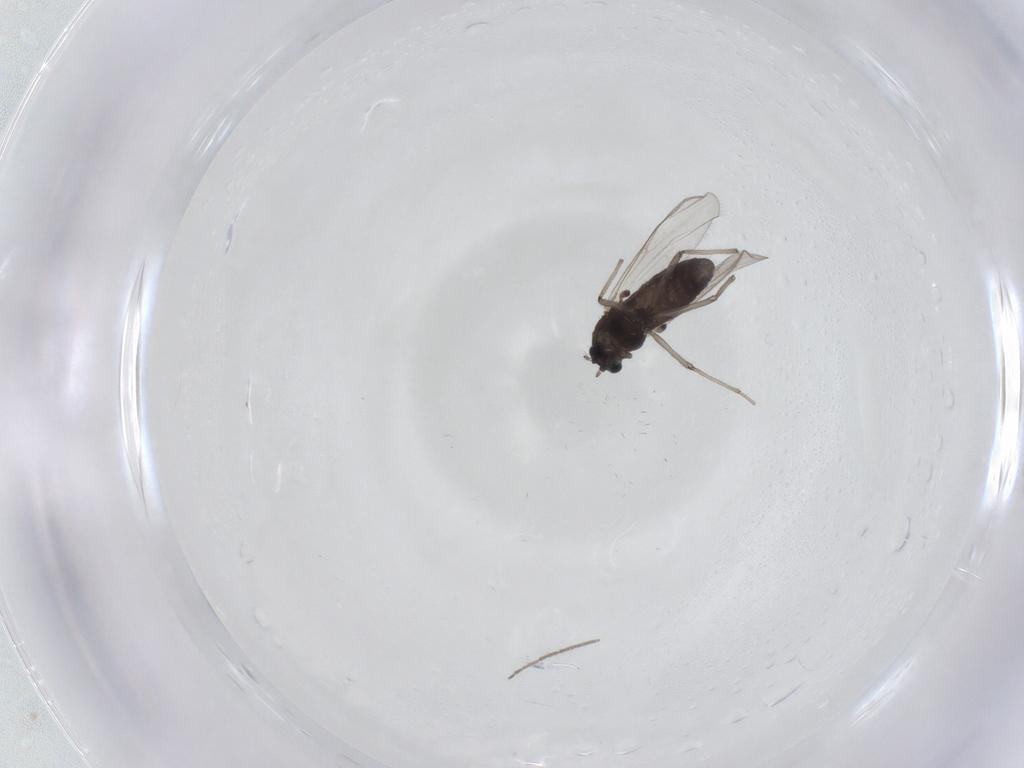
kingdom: Animalia
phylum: Arthropoda
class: Insecta
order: Diptera
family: Chironomidae
